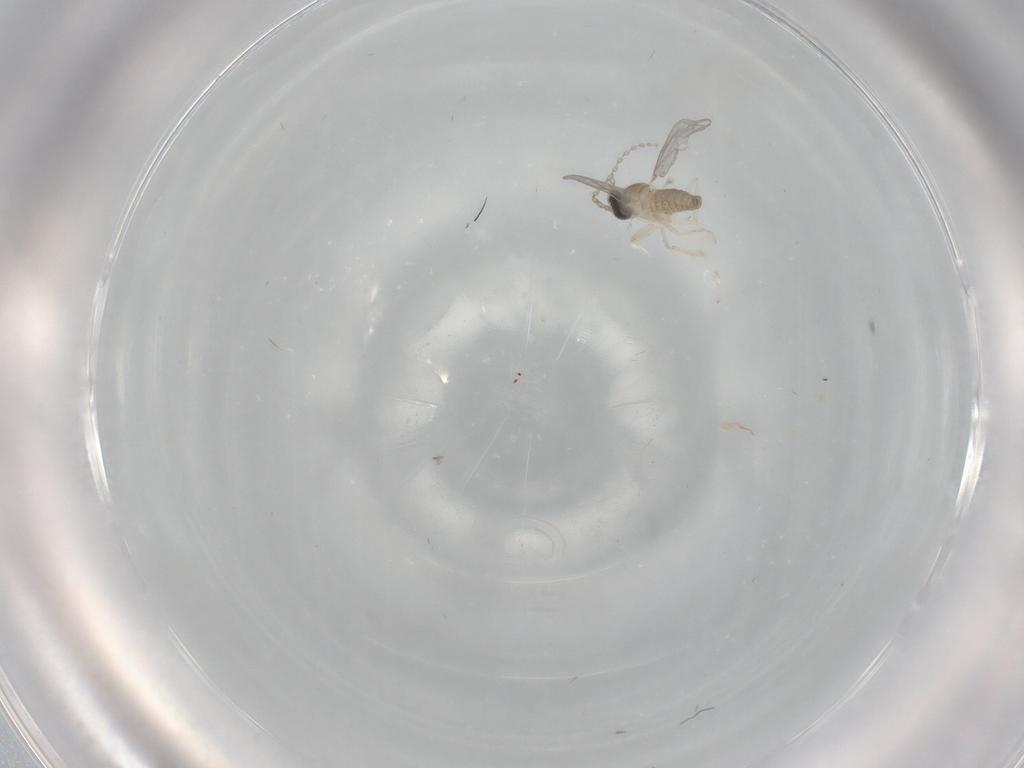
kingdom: Animalia
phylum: Arthropoda
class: Insecta
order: Diptera
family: Cecidomyiidae
